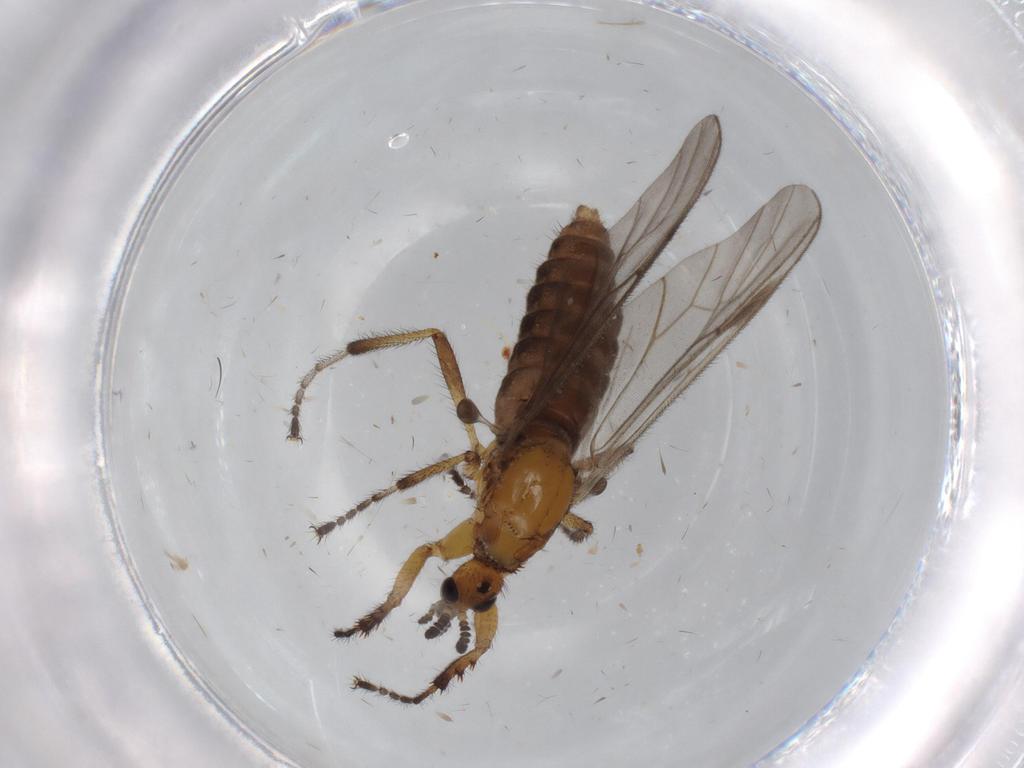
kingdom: Animalia
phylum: Arthropoda
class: Insecta
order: Diptera
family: Bibionidae
